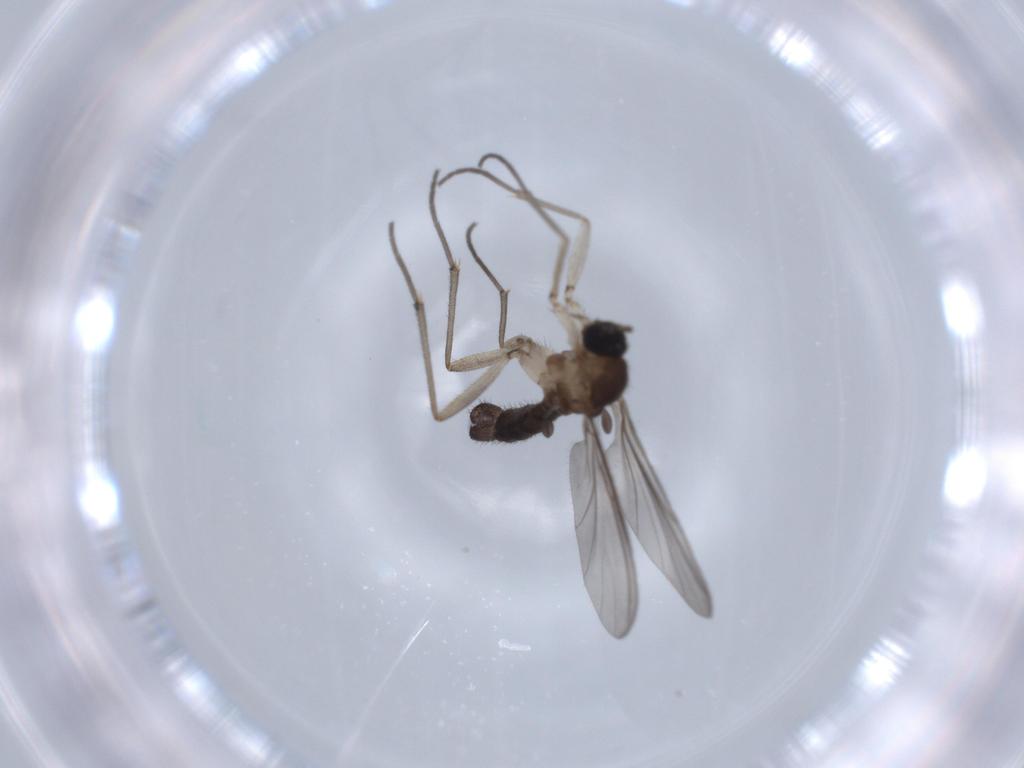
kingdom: Animalia
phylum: Arthropoda
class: Insecta
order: Diptera
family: Sciaridae
